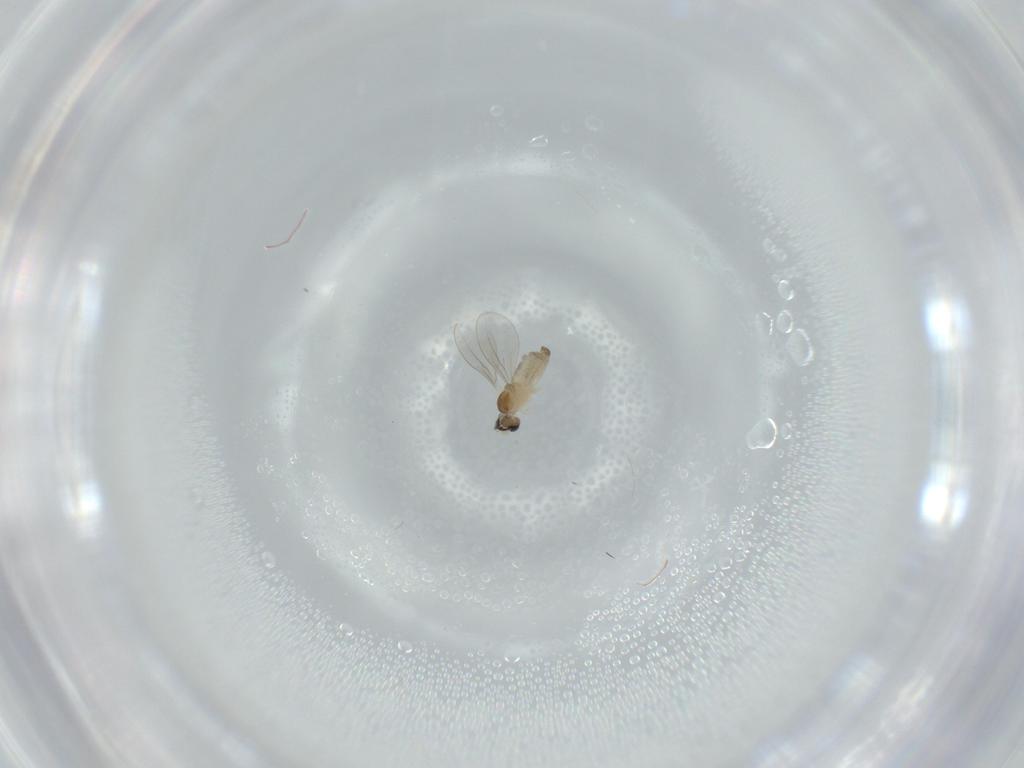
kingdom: Animalia
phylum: Arthropoda
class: Insecta
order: Diptera
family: Cecidomyiidae
